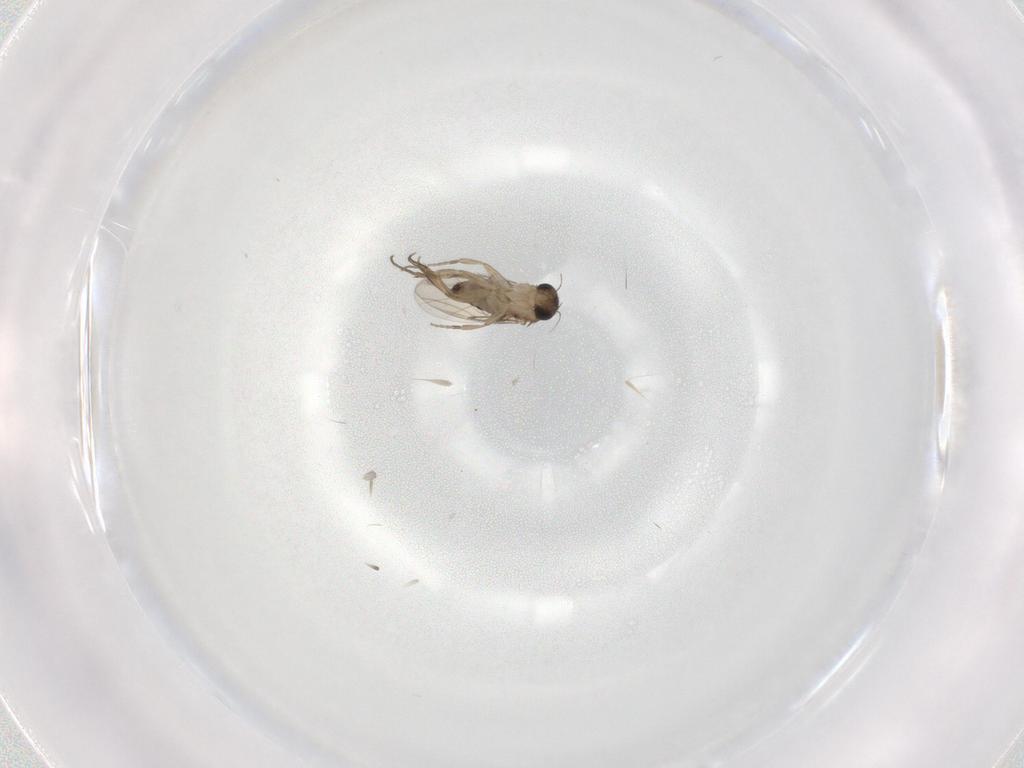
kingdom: Animalia
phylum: Arthropoda
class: Insecta
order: Diptera
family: Phoridae
